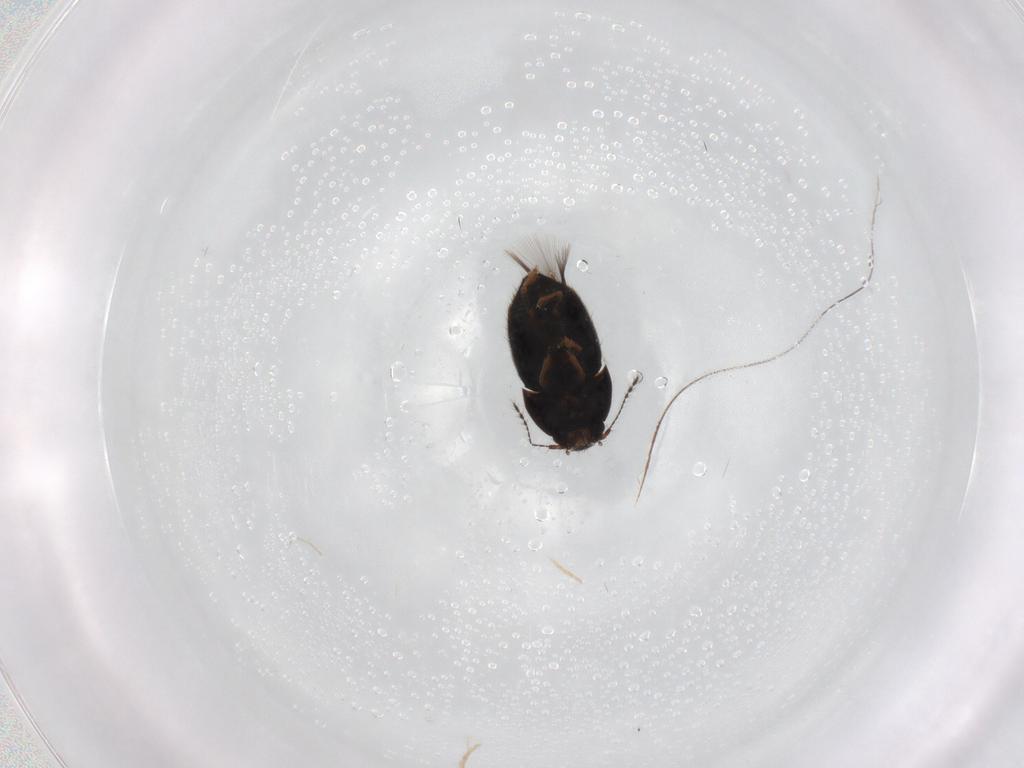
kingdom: Animalia
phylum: Arthropoda
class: Insecta
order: Coleoptera
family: Ptiliidae
